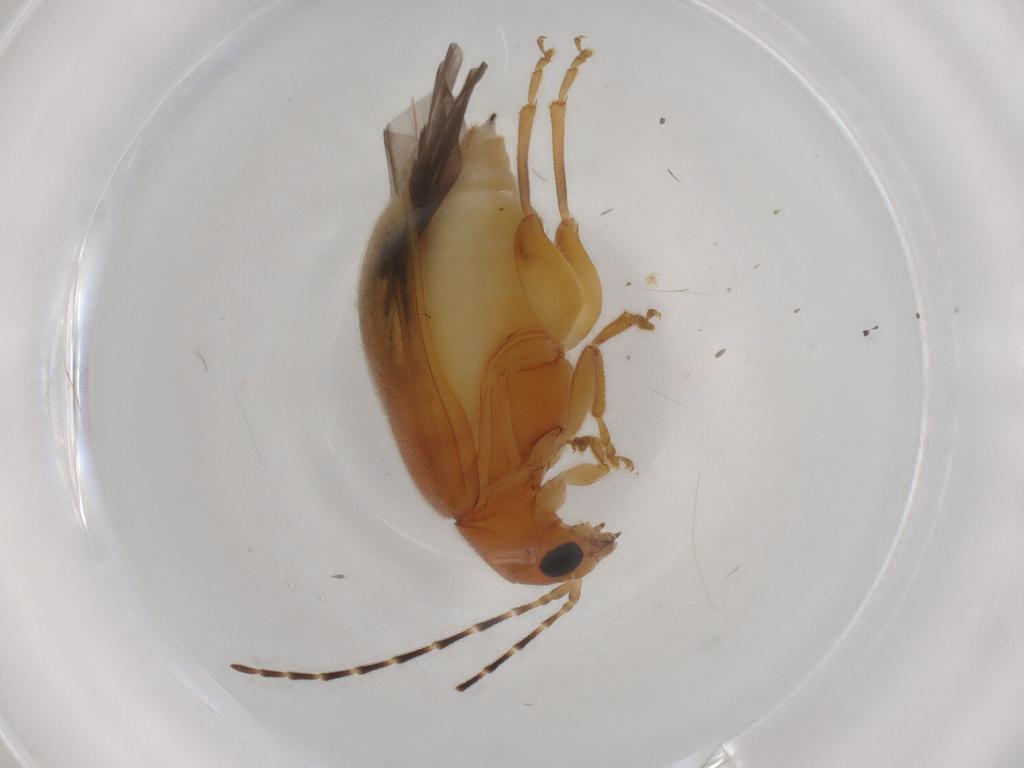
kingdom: Animalia
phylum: Arthropoda
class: Insecta
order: Coleoptera
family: Chrysomelidae
